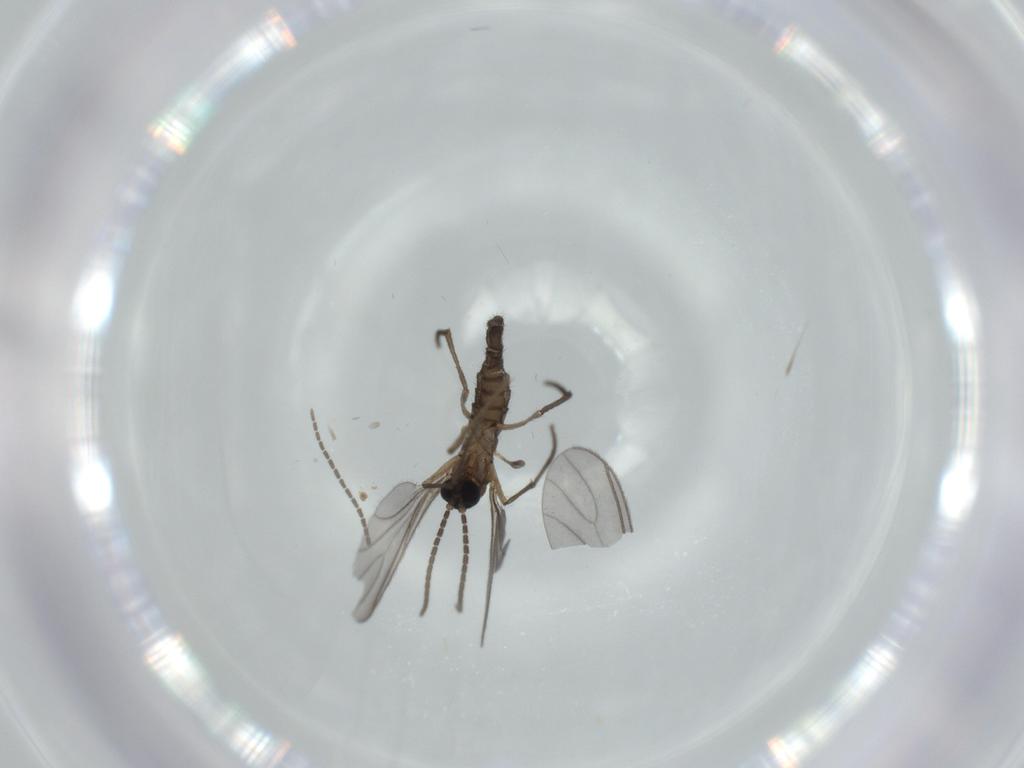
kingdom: Animalia
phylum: Arthropoda
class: Insecta
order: Diptera
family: Sciaridae
